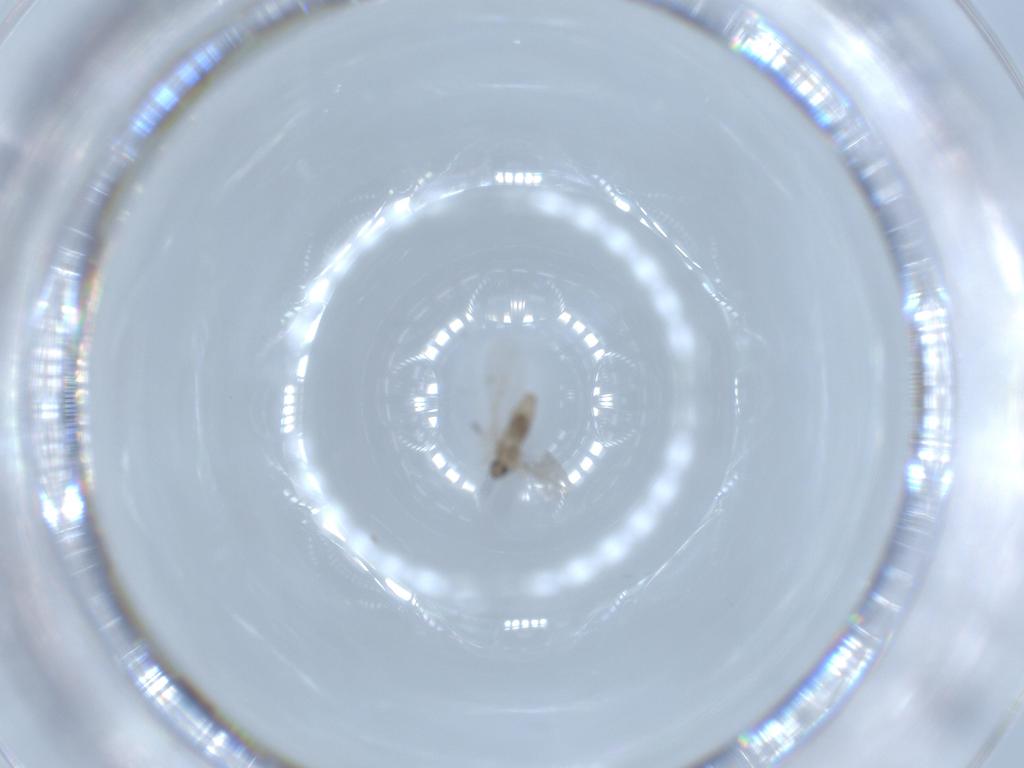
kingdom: Animalia
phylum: Arthropoda
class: Insecta
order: Diptera
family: Cecidomyiidae
